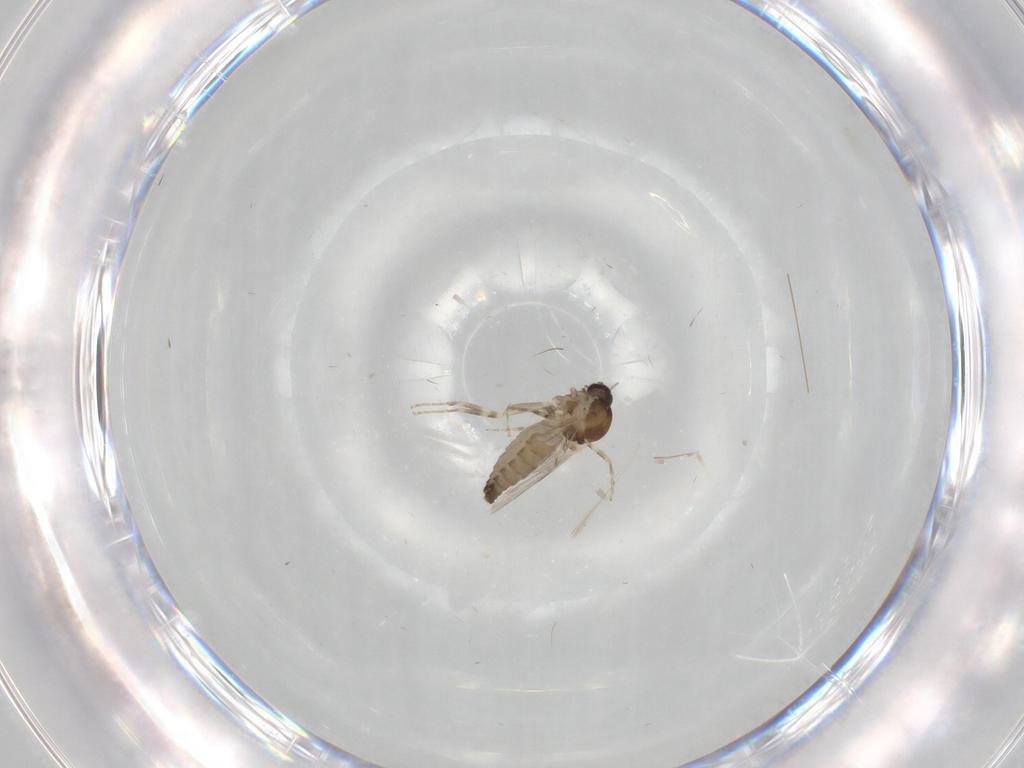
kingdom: Animalia
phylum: Arthropoda
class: Insecta
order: Diptera
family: Ceratopogonidae
